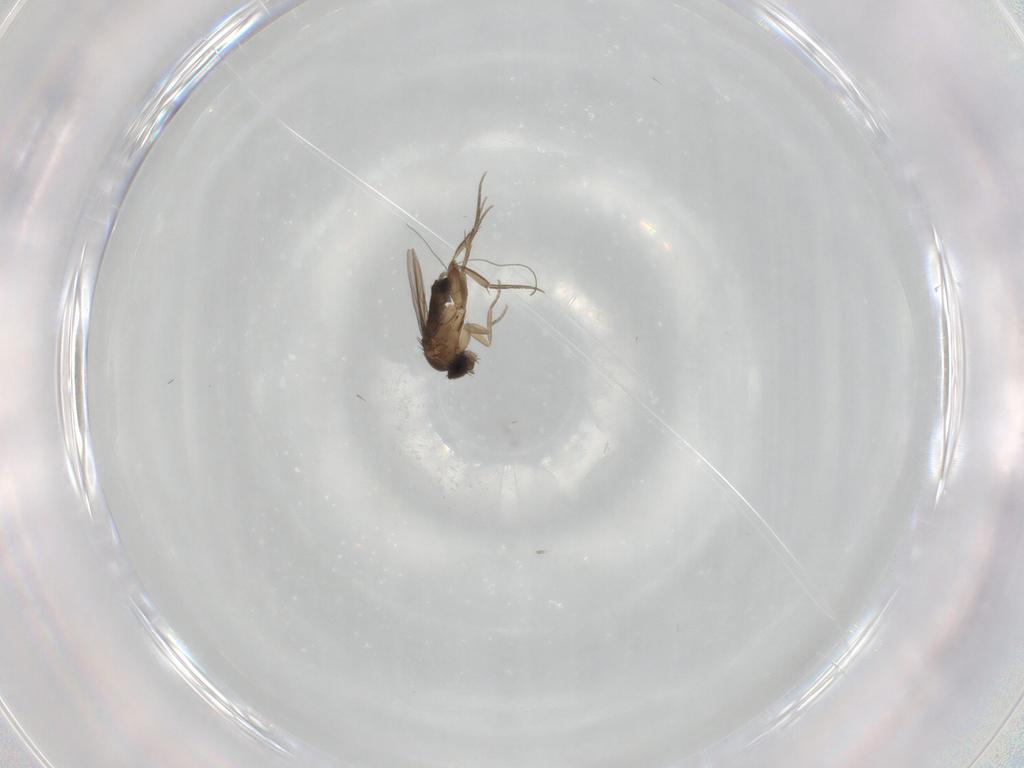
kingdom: Animalia
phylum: Arthropoda
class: Insecta
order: Diptera
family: Phoridae
